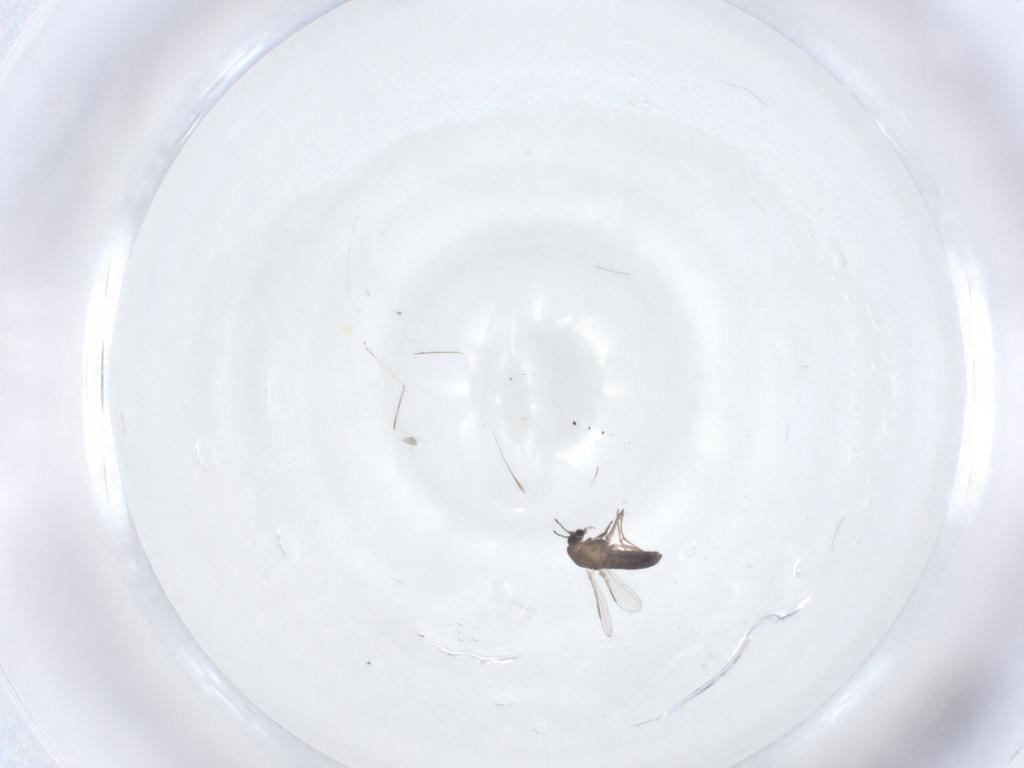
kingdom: Animalia
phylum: Arthropoda
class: Insecta
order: Diptera
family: Cecidomyiidae
